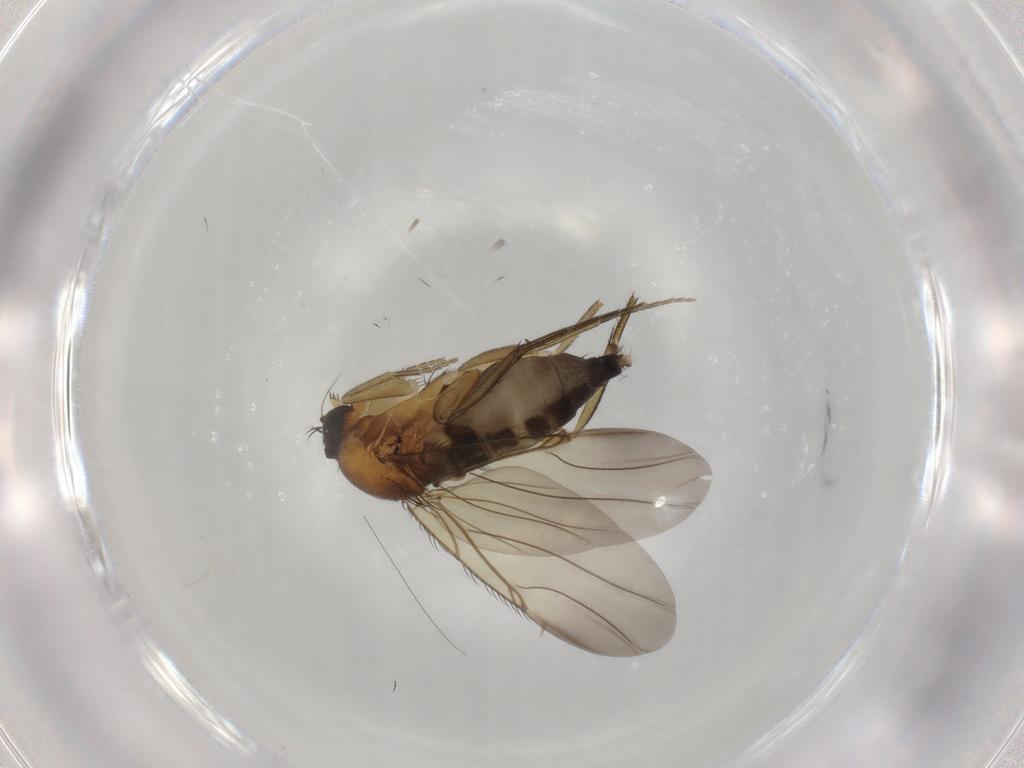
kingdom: Animalia
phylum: Arthropoda
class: Insecta
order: Diptera
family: Phoridae
